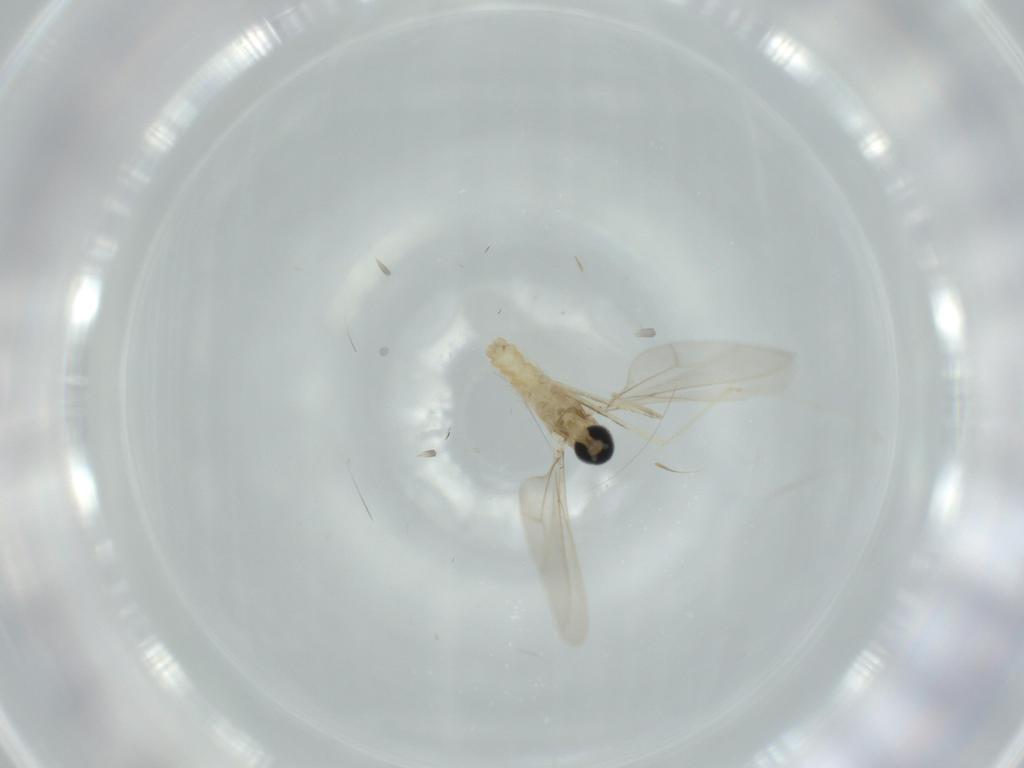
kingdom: Animalia
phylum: Arthropoda
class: Insecta
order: Diptera
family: Cecidomyiidae
